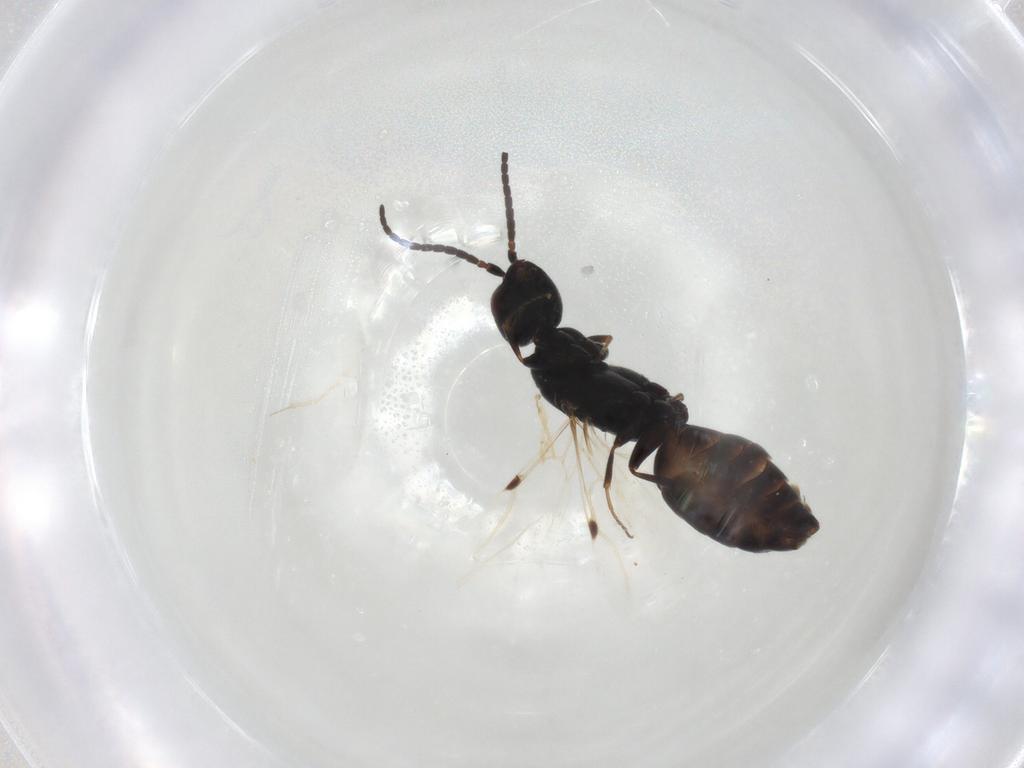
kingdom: Animalia
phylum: Arthropoda
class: Insecta
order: Hymenoptera
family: Bethylidae
